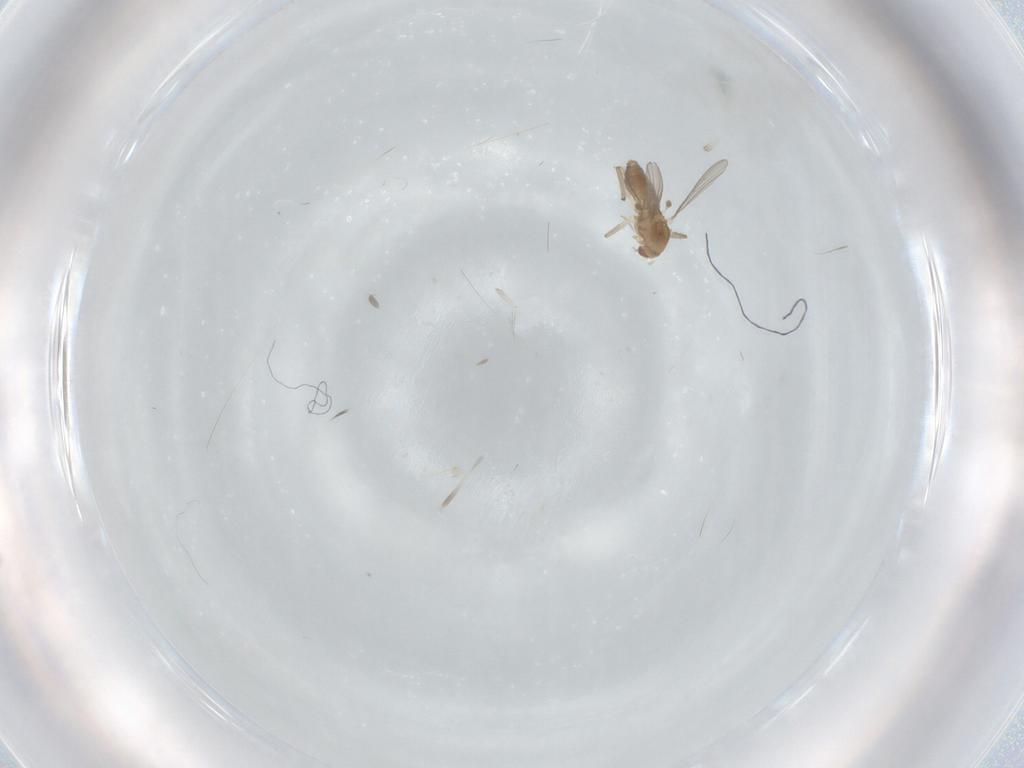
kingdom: Animalia
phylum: Arthropoda
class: Insecta
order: Diptera
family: Chironomidae
